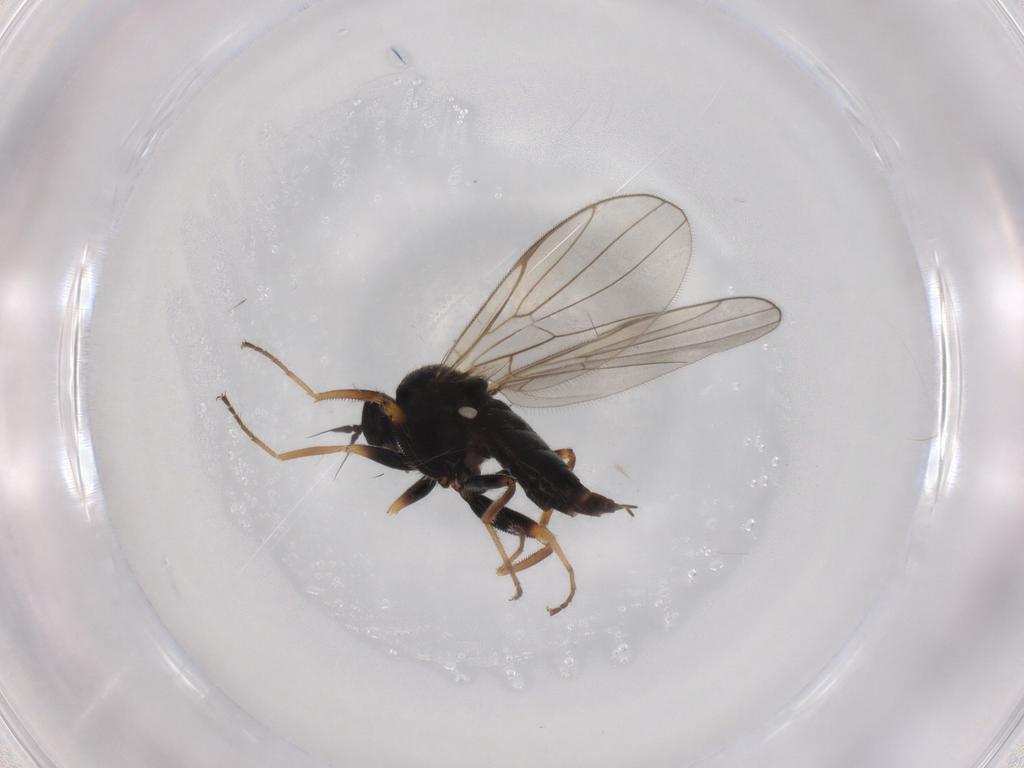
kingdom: Animalia
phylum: Arthropoda
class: Insecta
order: Diptera
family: Hybotidae
